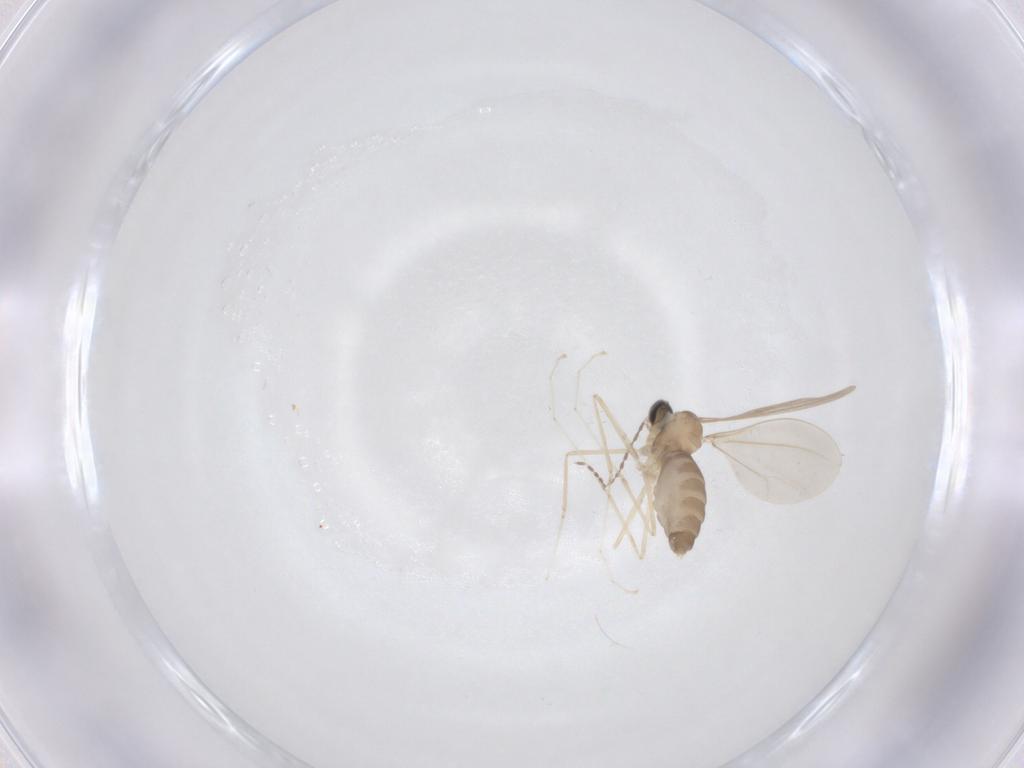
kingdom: Animalia
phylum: Arthropoda
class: Insecta
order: Diptera
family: Cecidomyiidae
